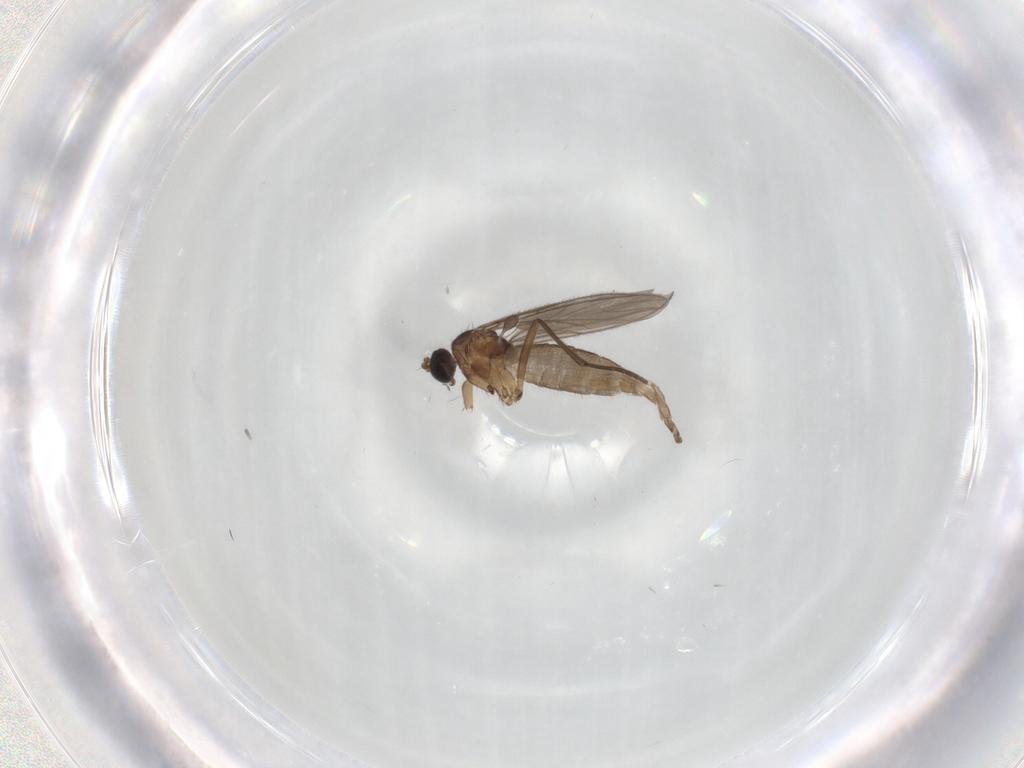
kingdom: Animalia
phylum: Arthropoda
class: Insecta
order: Diptera
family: Sciaridae
